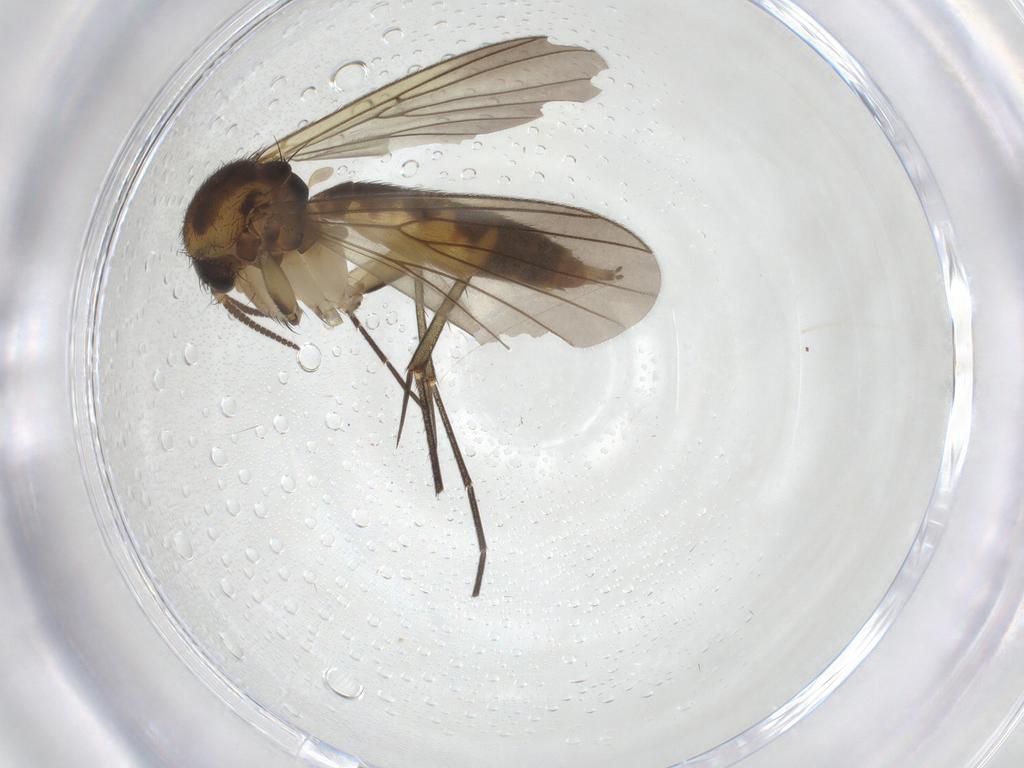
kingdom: Animalia
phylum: Arthropoda
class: Insecta
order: Diptera
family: Mycetophilidae
